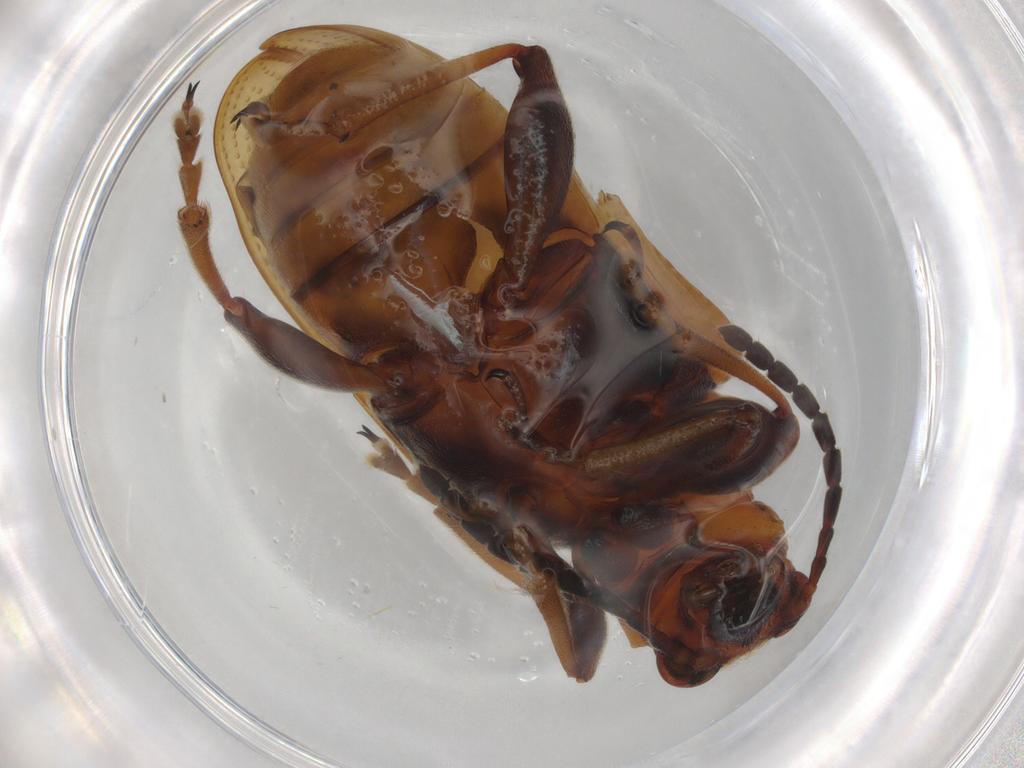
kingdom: Animalia
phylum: Arthropoda
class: Insecta
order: Coleoptera
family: Chrysomelidae
